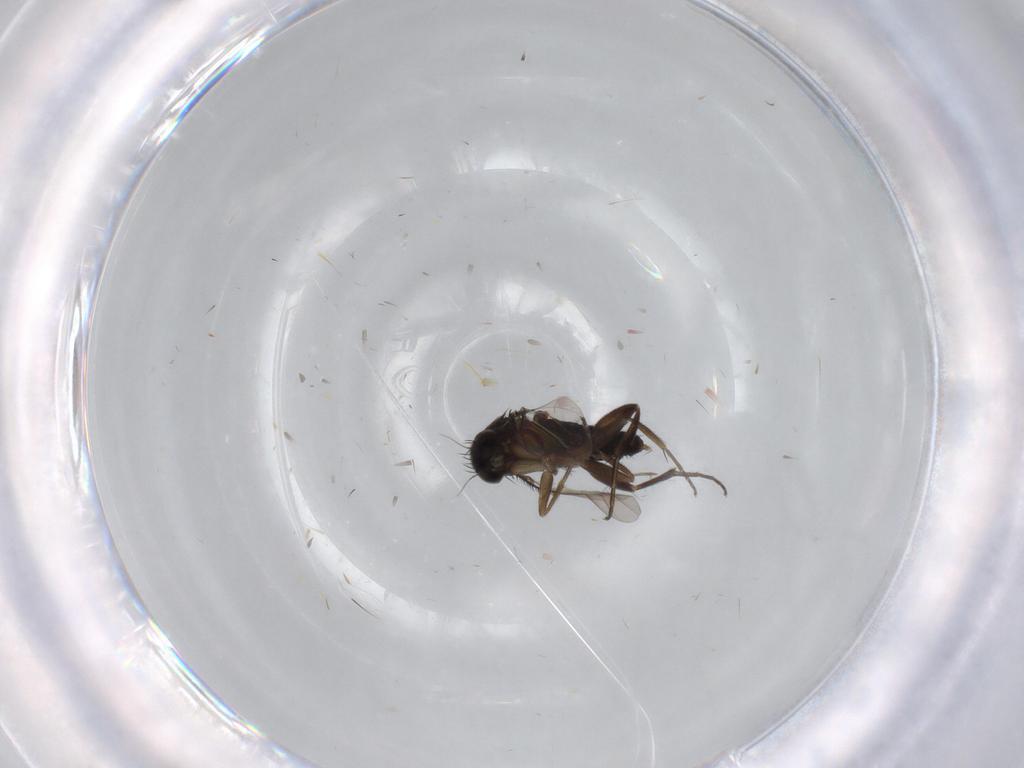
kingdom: Animalia
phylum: Arthropoda
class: Insecta
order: Diptera
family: Phoridae
